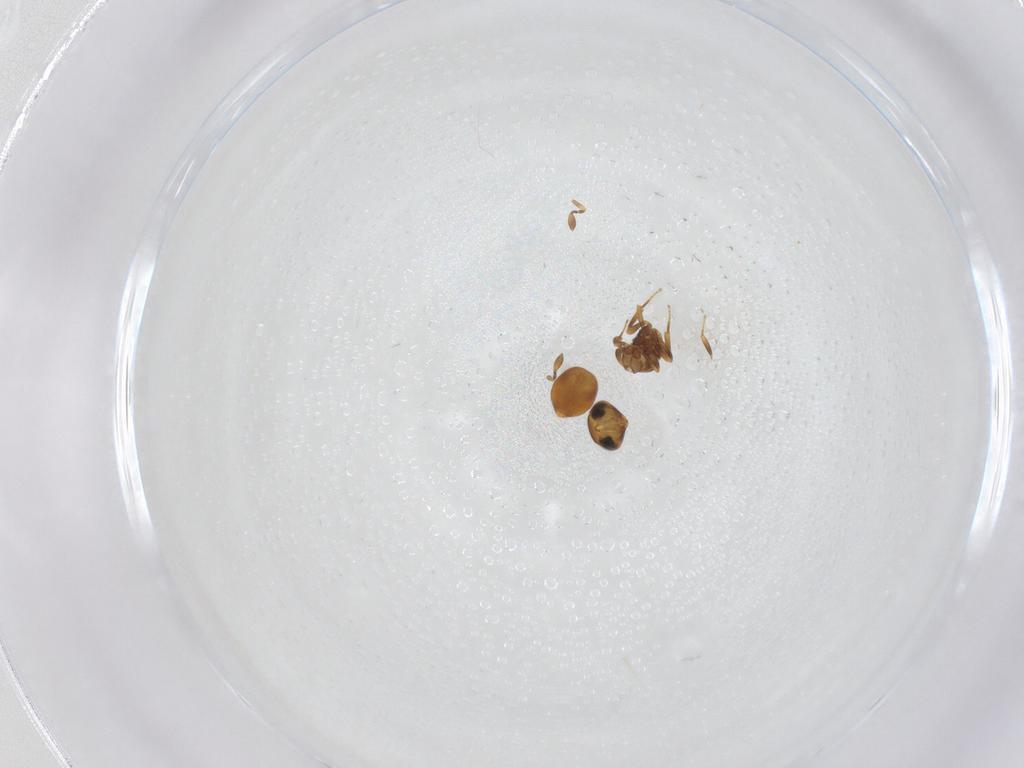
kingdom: Animalia
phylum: Arthropoda
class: Insecta
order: Hymenoptera
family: Scelionidae
